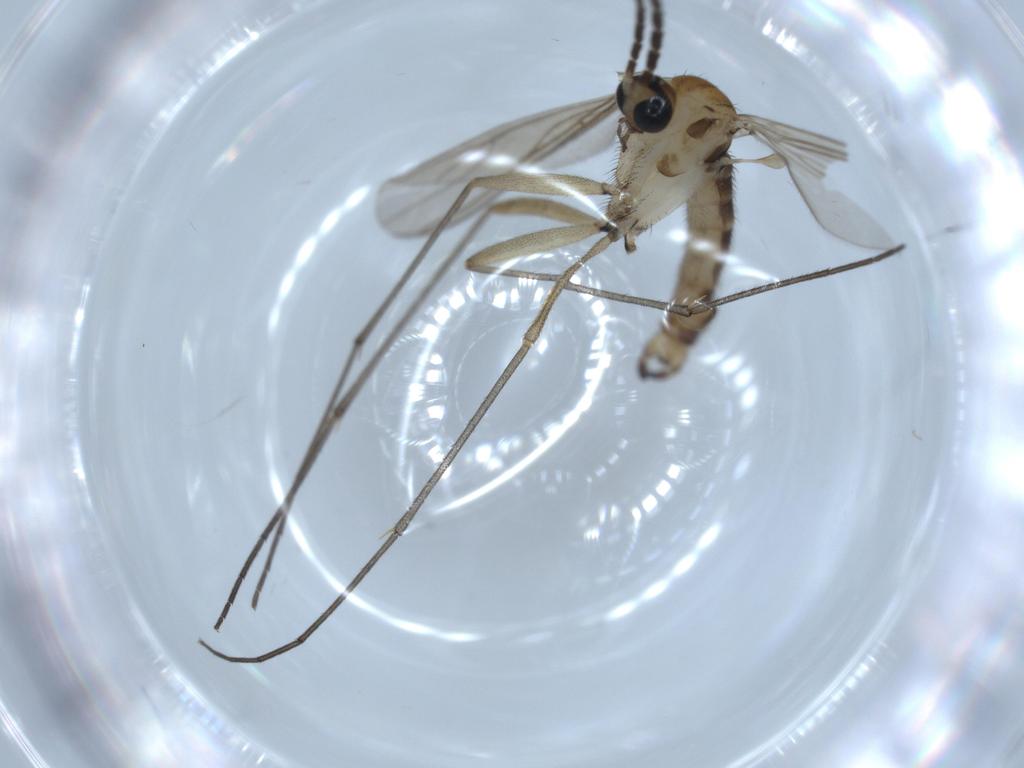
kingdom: Animalia
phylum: Arthropoda
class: Insecta
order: Diptera
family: Sciaridae
